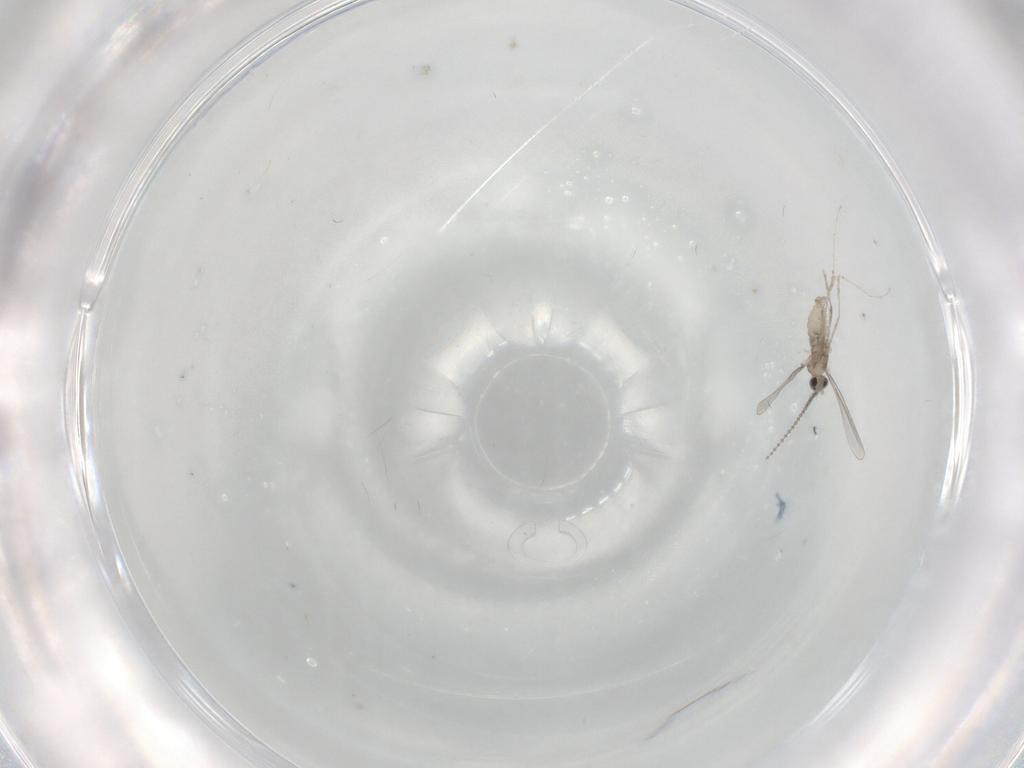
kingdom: Animalia
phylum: Arthropoda
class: Insecta
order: Diptera
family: Cecidomyiidae
